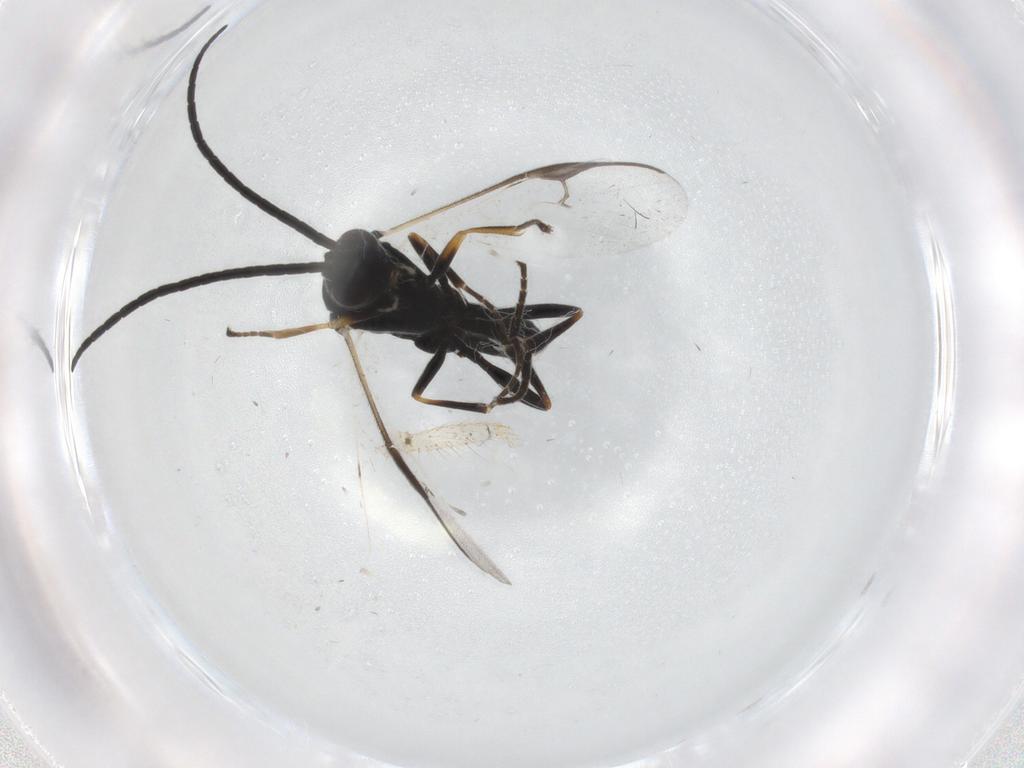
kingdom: Animalia
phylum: Arthropoda
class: Insecta
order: Hymenoptera
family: Braconidae
